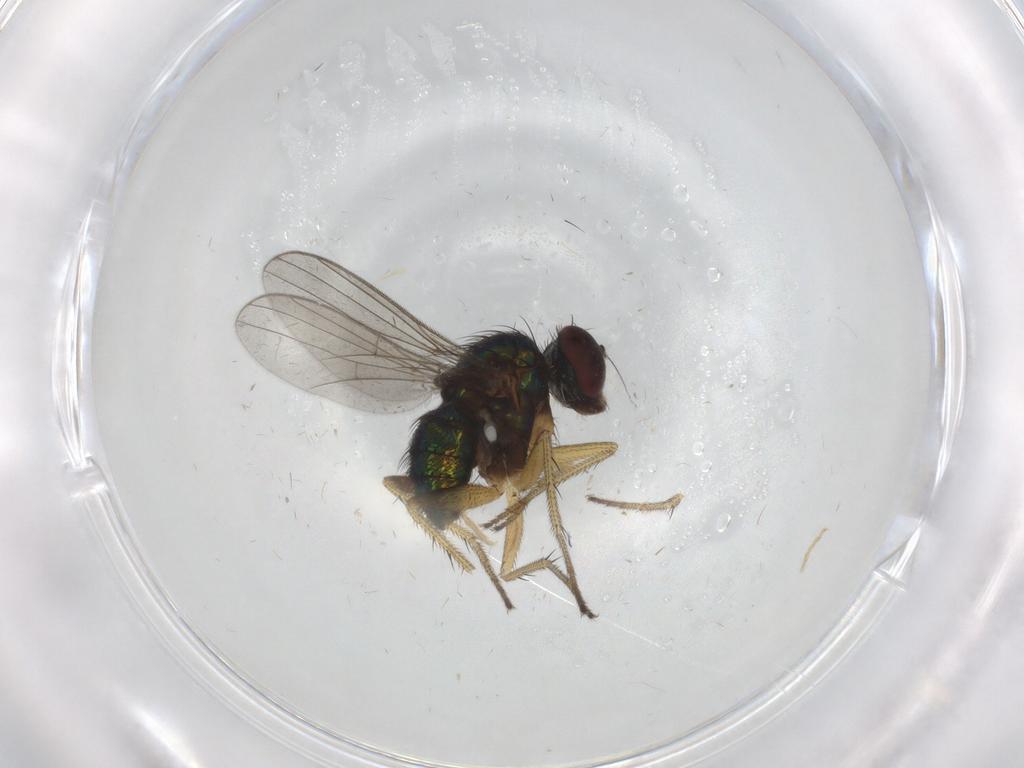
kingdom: Animalia
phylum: Arthropoda
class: Insecta
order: Diptera
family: Dolichopodidae
